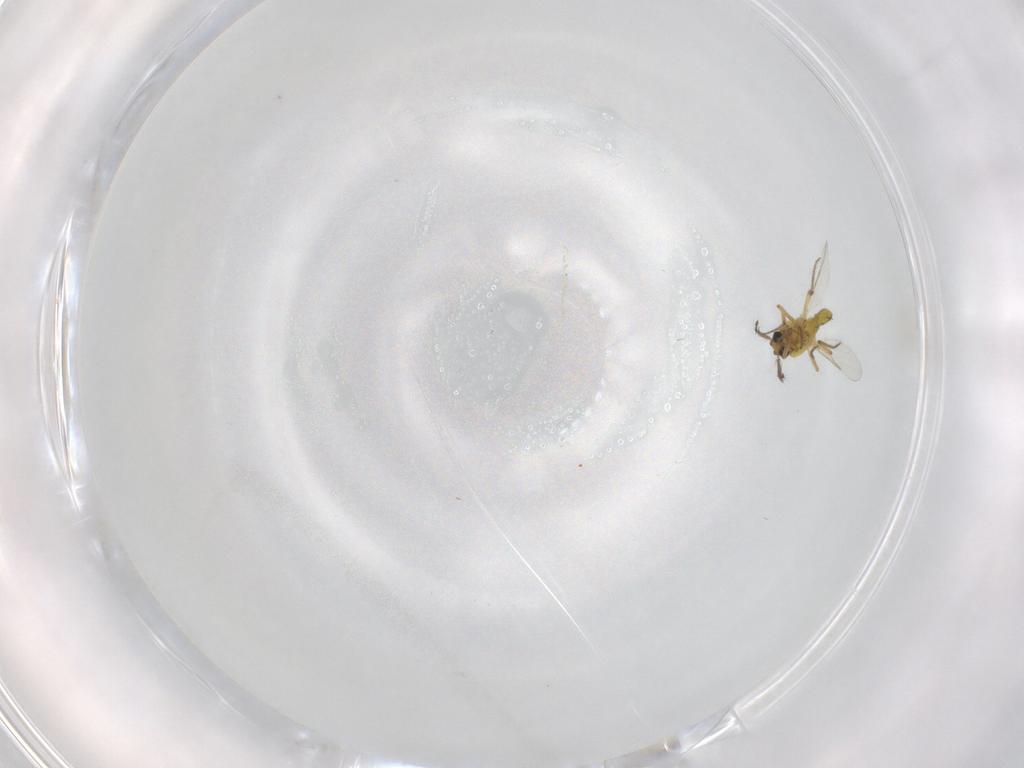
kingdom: Animalia
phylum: Arthropoda
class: Insecta
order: Diptera
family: Ceratopogonidae
